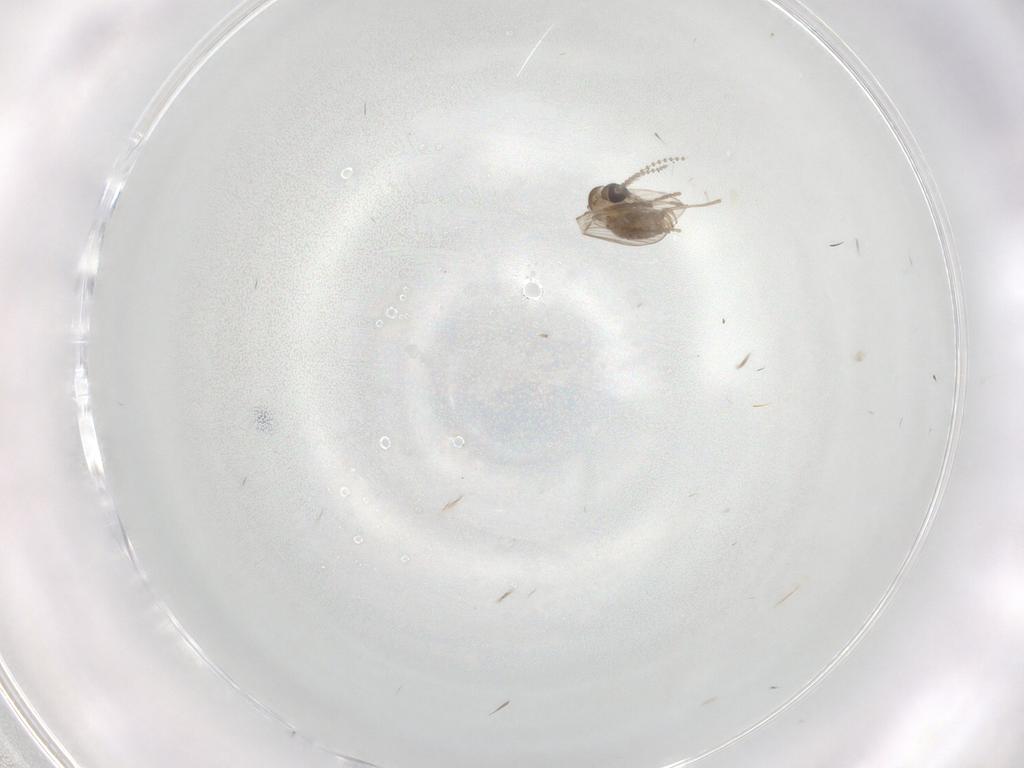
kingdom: Animalia
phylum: Arthropoda
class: Insecta
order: Diptera
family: Psychodidae
